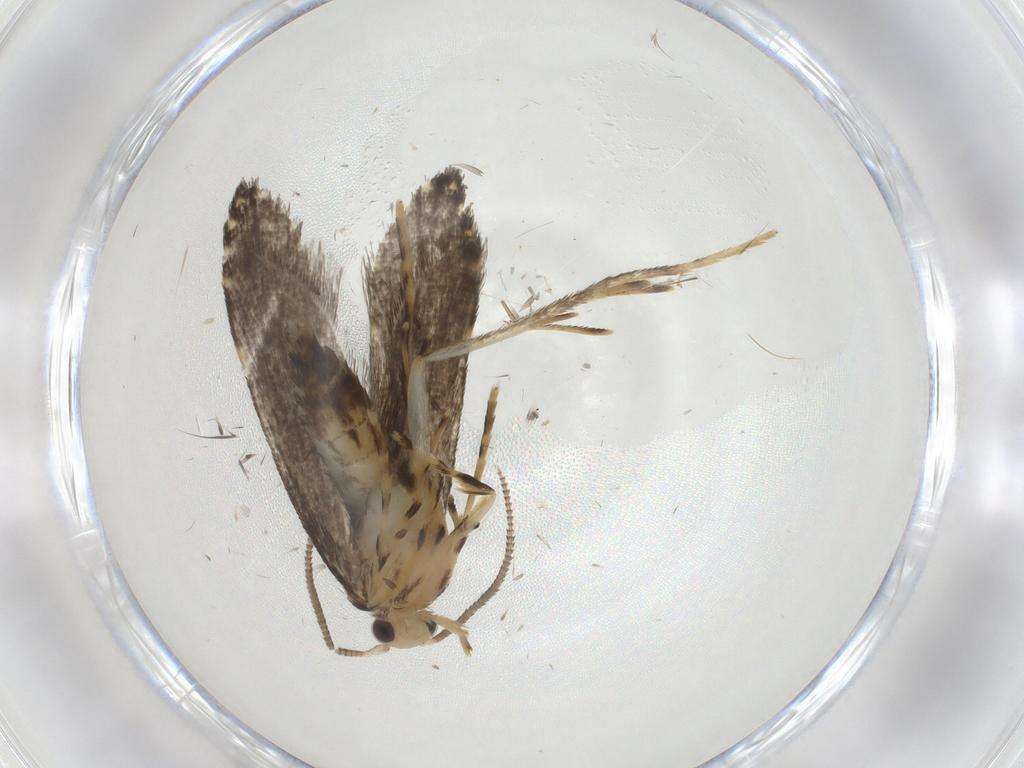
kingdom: Animalia
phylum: Arthropoda
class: Insecta
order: Lepidoptera
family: Tineidae
